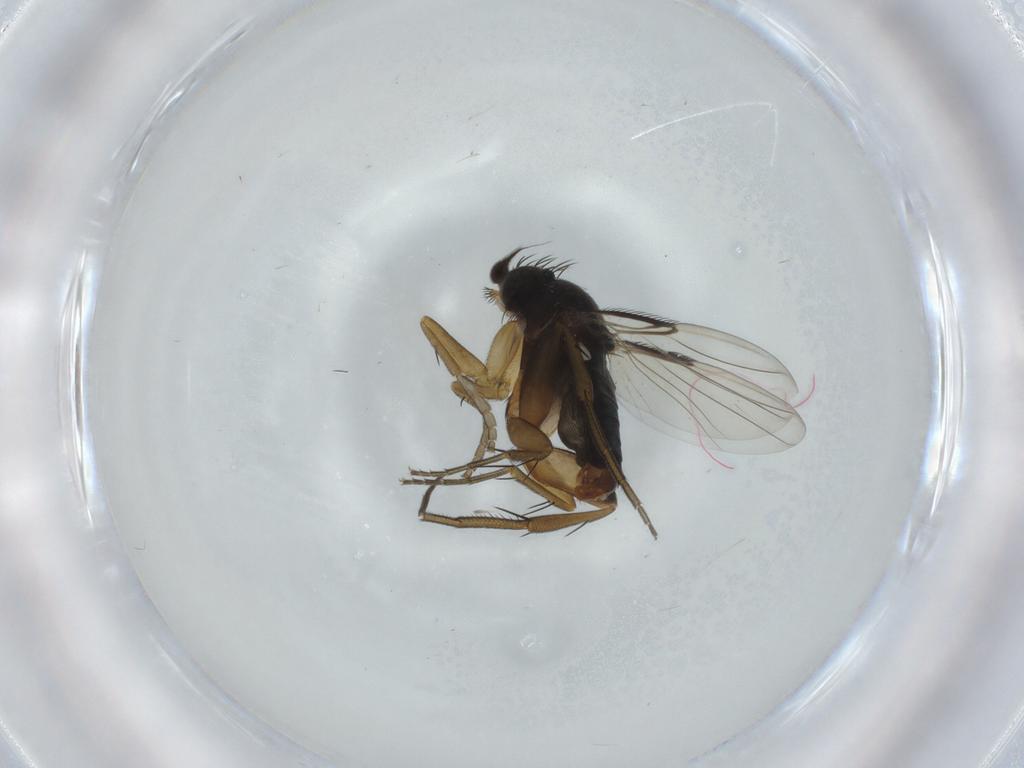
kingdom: Animalia
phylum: Arthropoda
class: Insecta
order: Diptera
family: Phoridae
